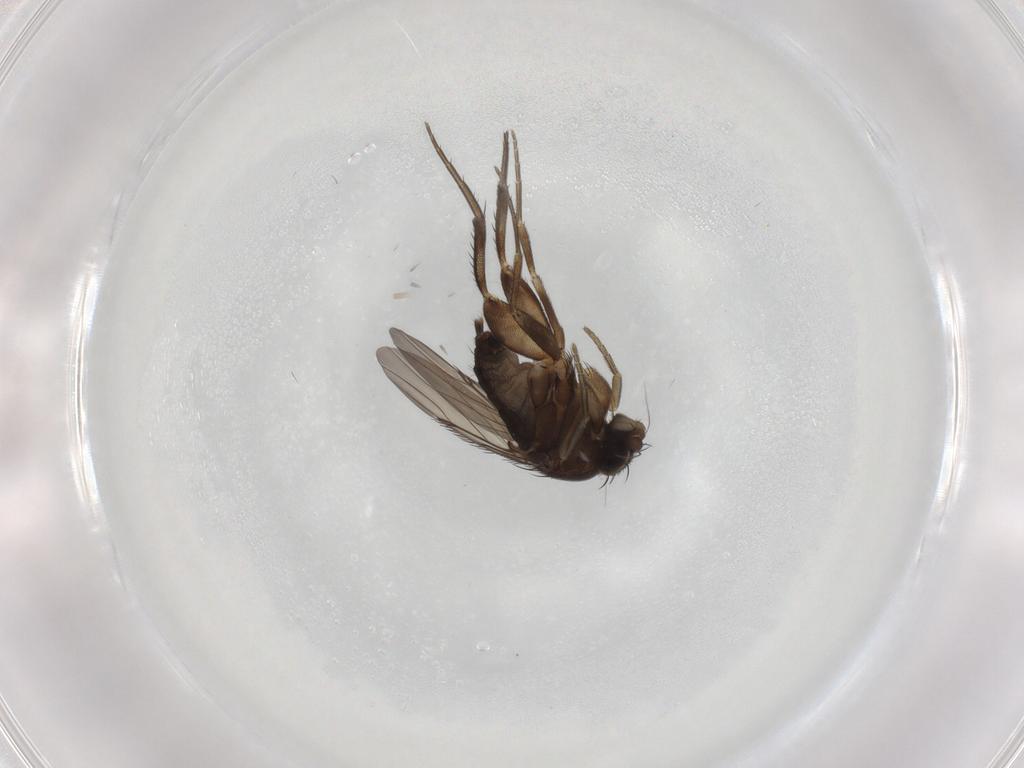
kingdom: Animalia
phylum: Arthropoda
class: Insecta
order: Diptera
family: Phoridae
